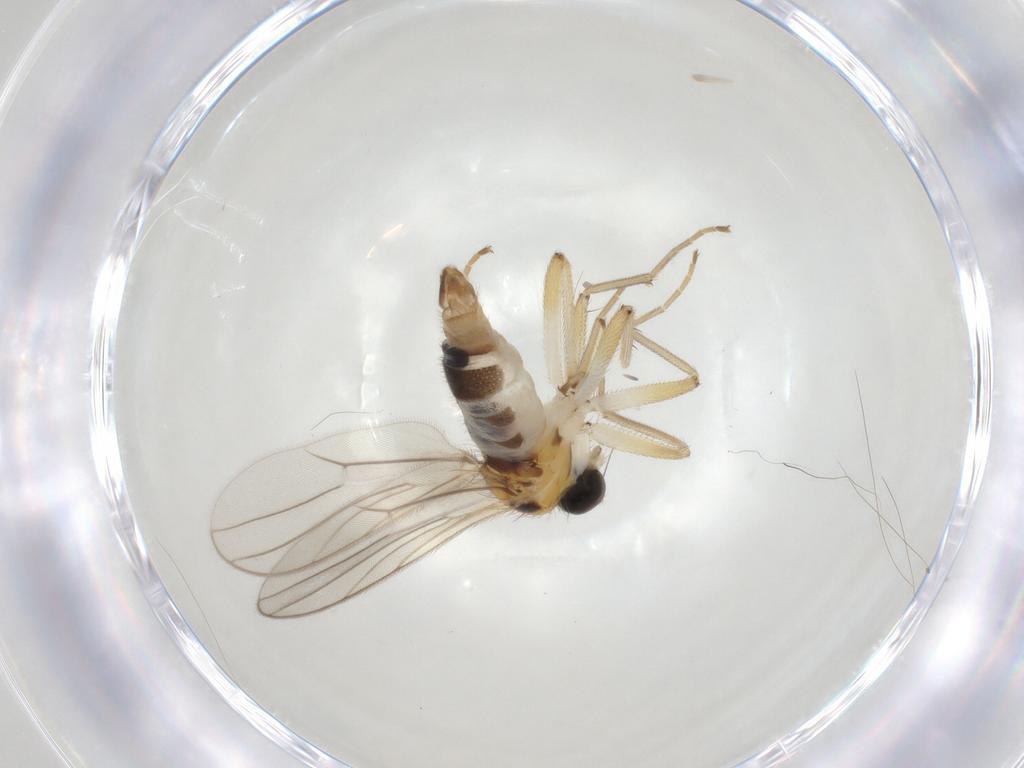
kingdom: Animalia
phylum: Arthropoda
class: Insecta
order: Diptera
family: Hybotidae
